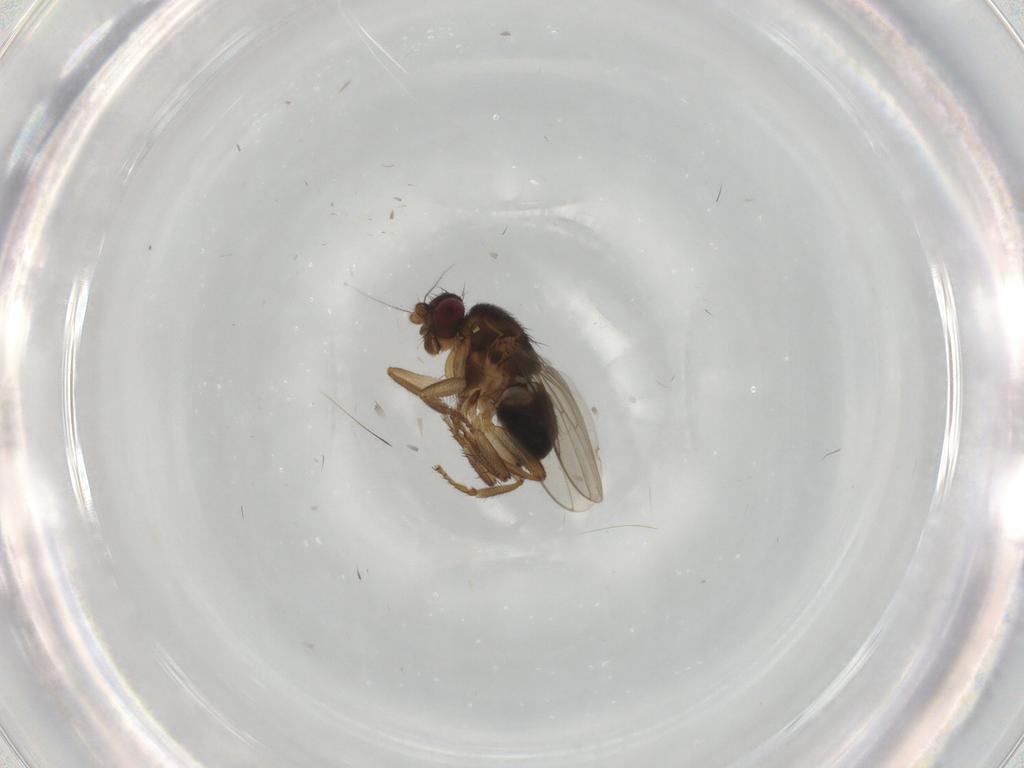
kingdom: Animalia
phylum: Arthropoda
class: Insecta
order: Diptera
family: Sphaeroceridae
